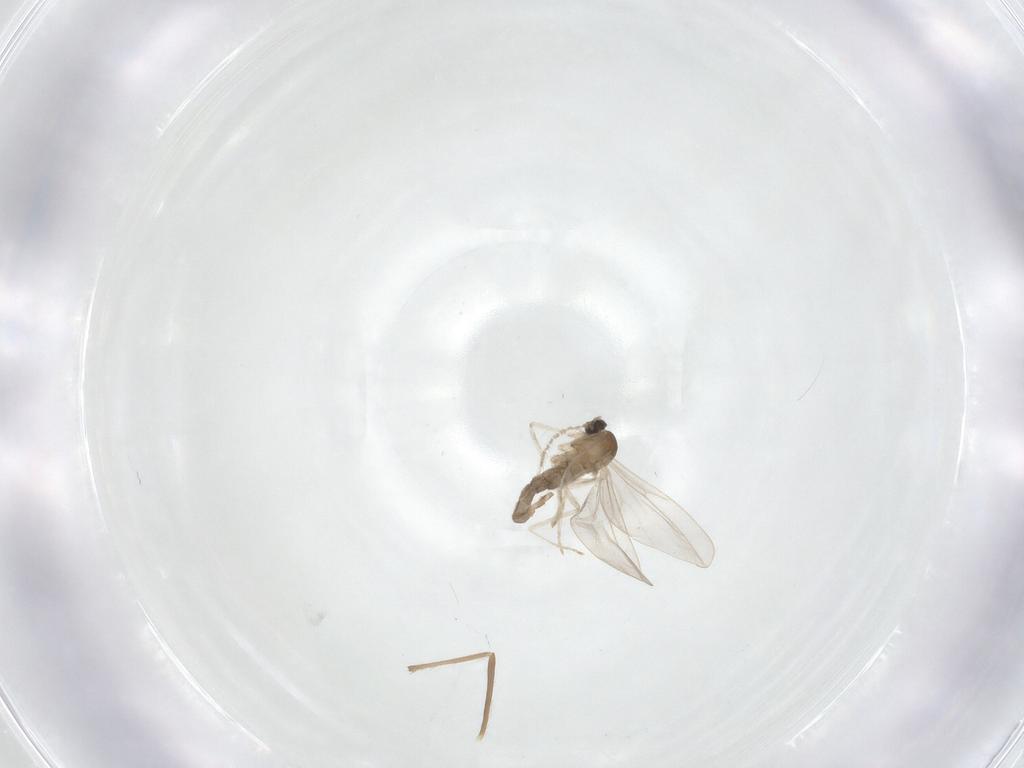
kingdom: Animalia
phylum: Arthropoda
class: Insecta
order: Diptera
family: Cecidomyiidae
